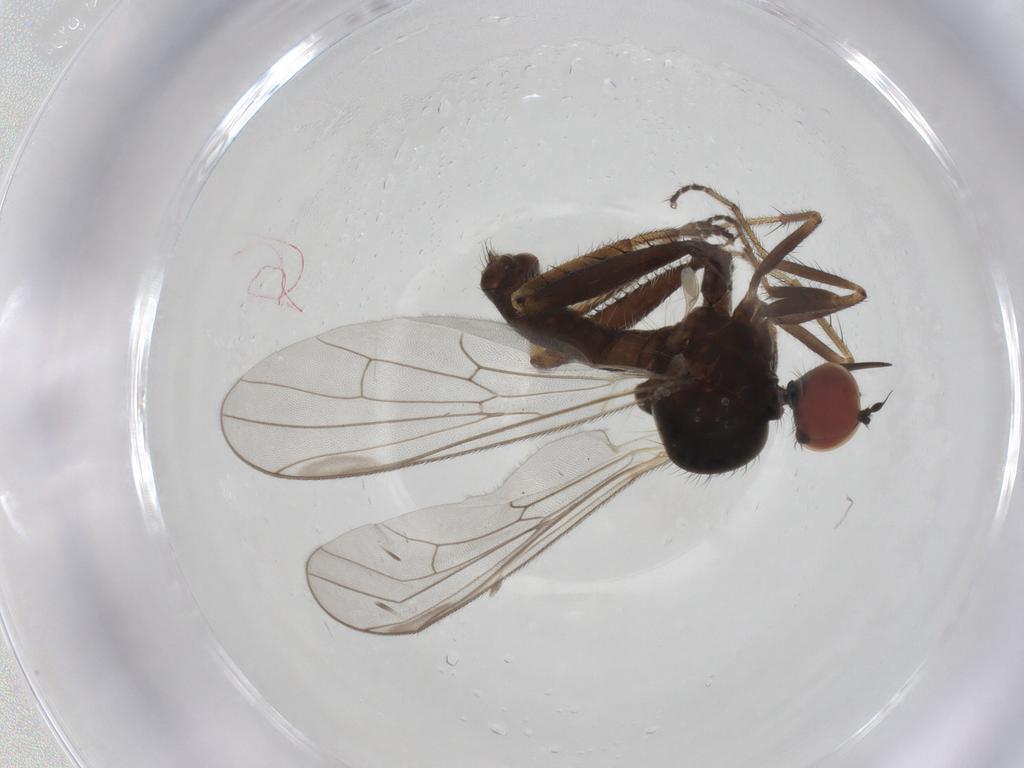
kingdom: Animalia
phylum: Arthropoda
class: Insecta
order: Diptera
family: Hybotidae
